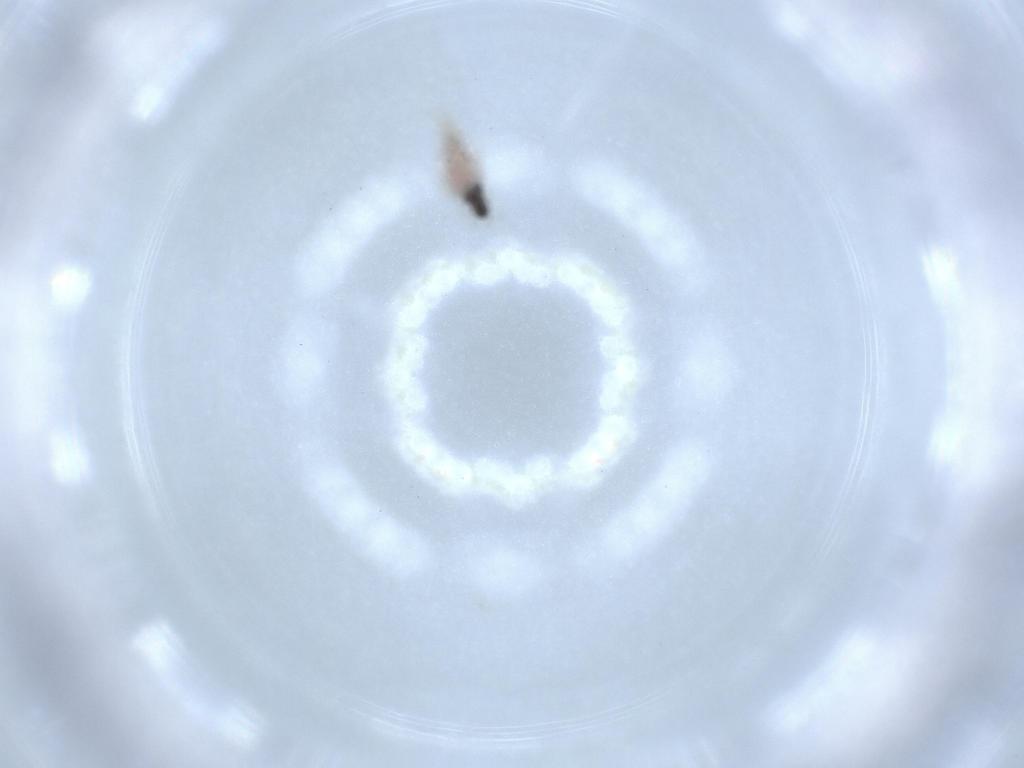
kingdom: Animalia
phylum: Arthropoda
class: Insecta
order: Thysanoptera
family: Phlaeothripidae
